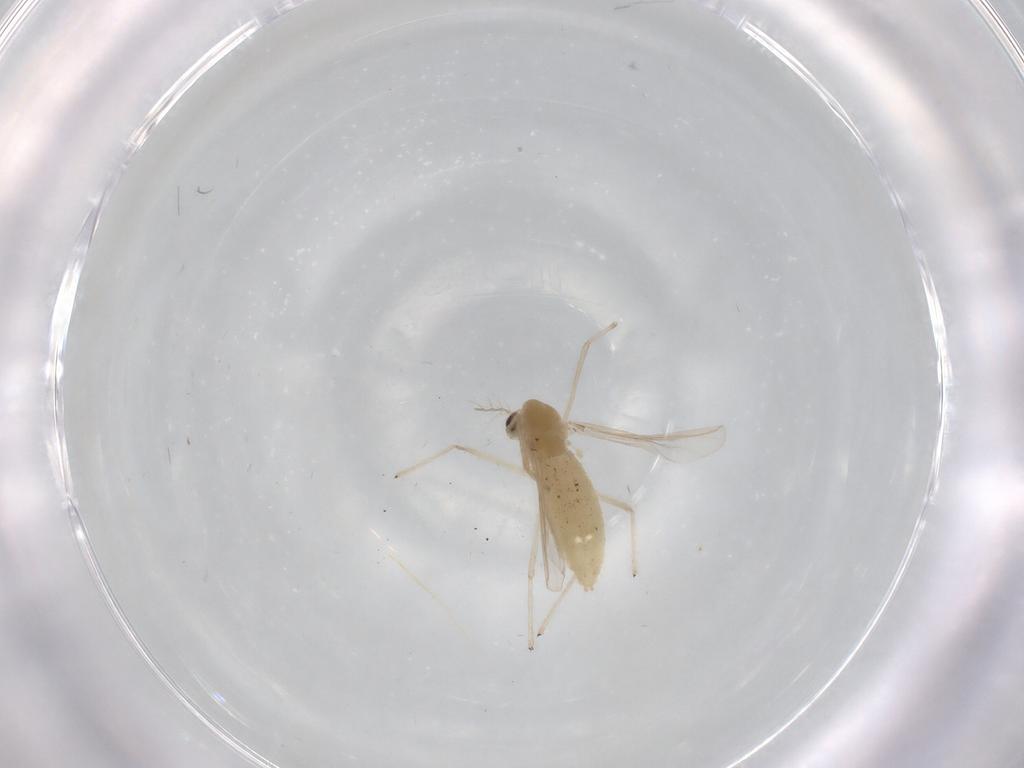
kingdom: Animalia
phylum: Arthropoda
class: Insecta
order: Diptera
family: Chironomidae
